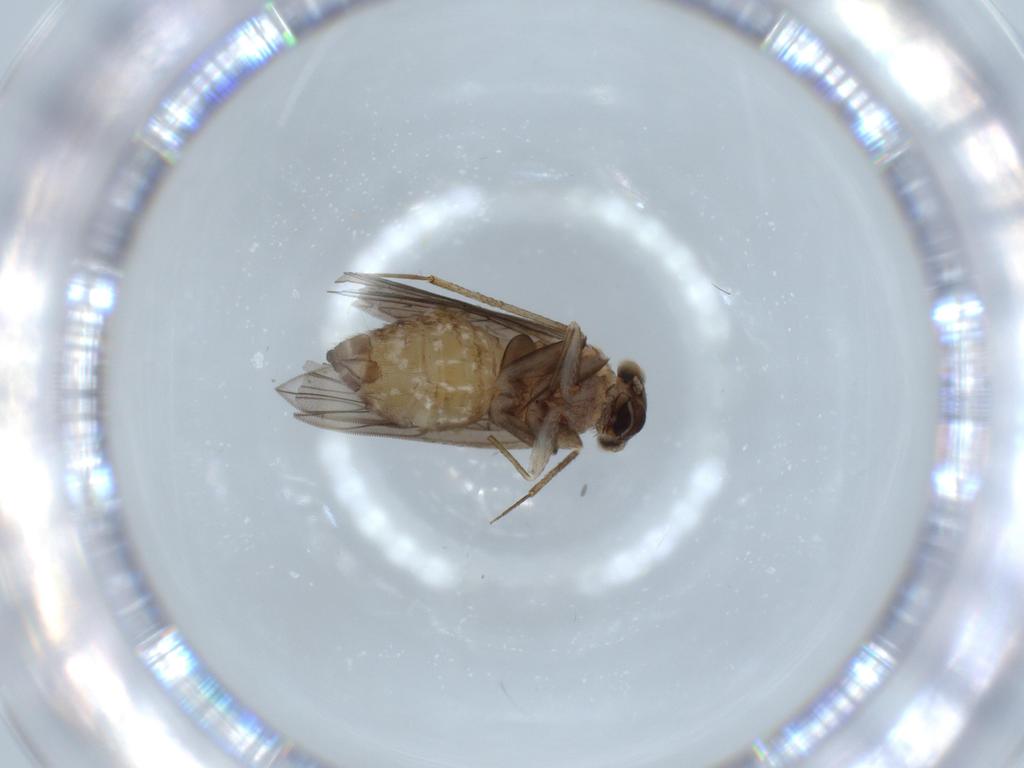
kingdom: Animalia
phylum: Arthropoda
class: Insecta
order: Psocodea
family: Lepidopsocidae
